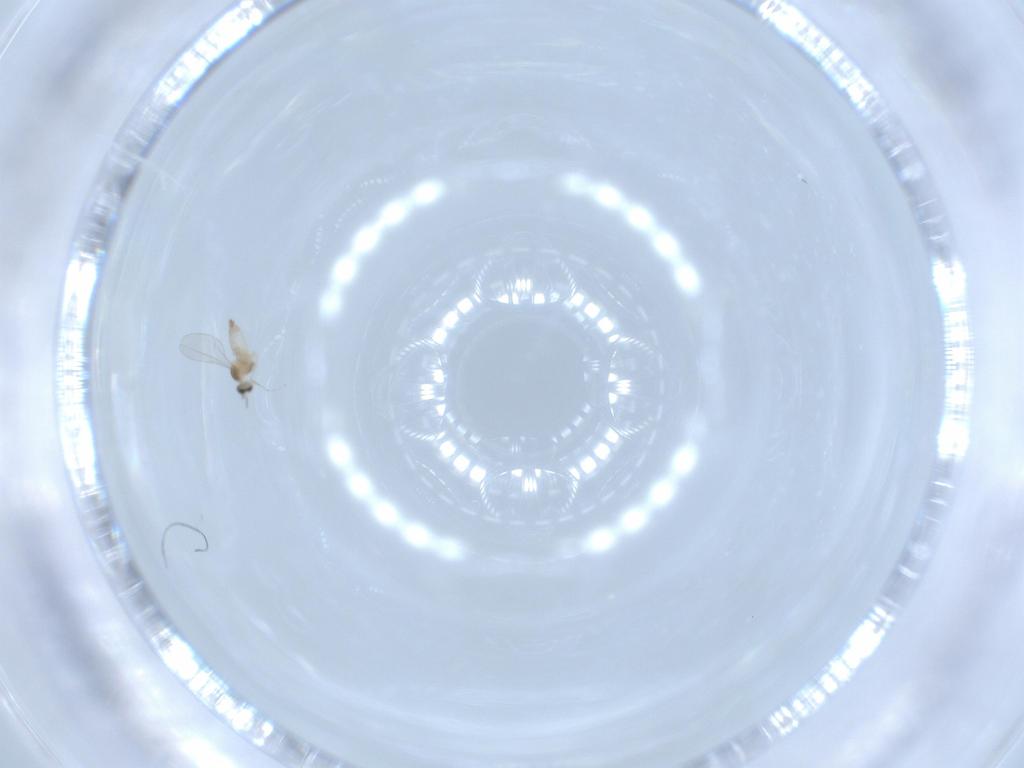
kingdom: Animalia
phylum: Arthropoda
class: Insecta
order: Diptera
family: Cecidomyiidae
